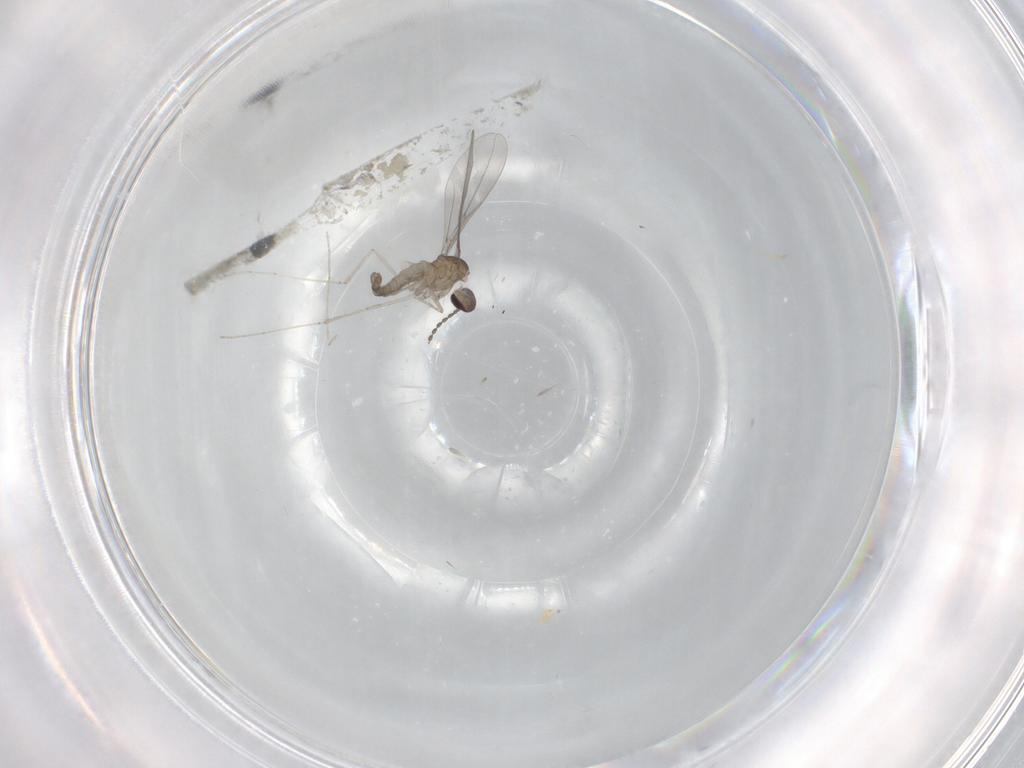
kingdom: Animalia
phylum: Arthropoda
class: Insecta
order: Diptera
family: Cecidomyiidae
